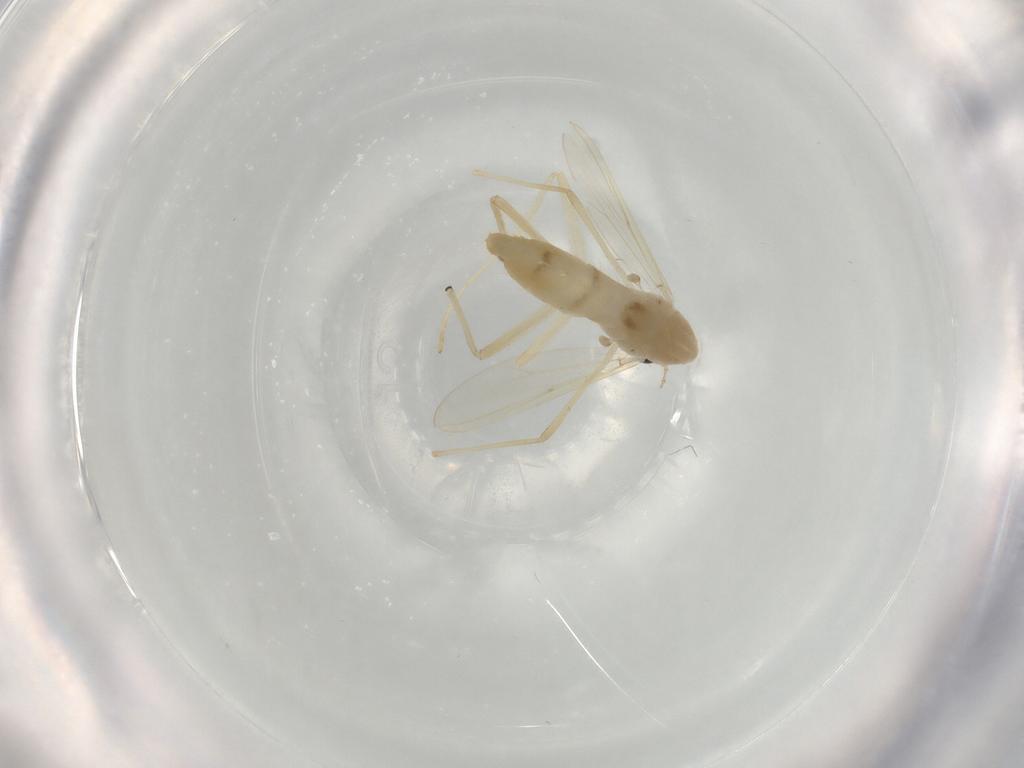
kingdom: Animalia
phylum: Arthropoda
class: Insecta
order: Diptera
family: Chironomidae
